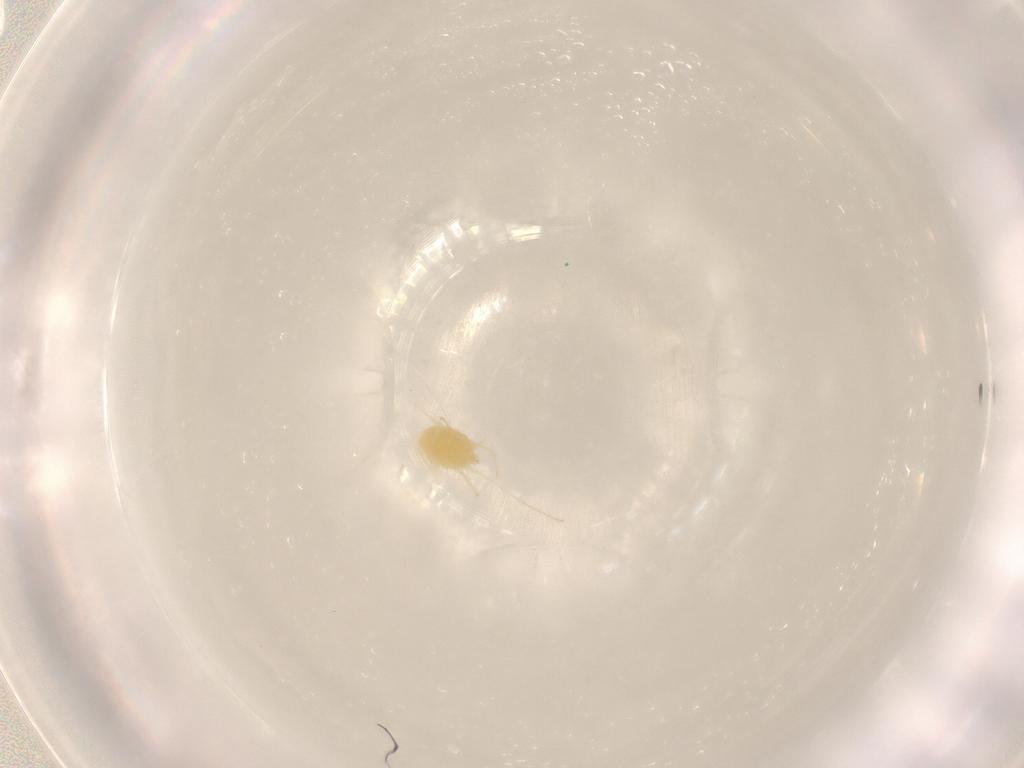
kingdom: Animalia
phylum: Arthropoda
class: Arachnida
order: Trombidiformes
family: Tetranychidae
